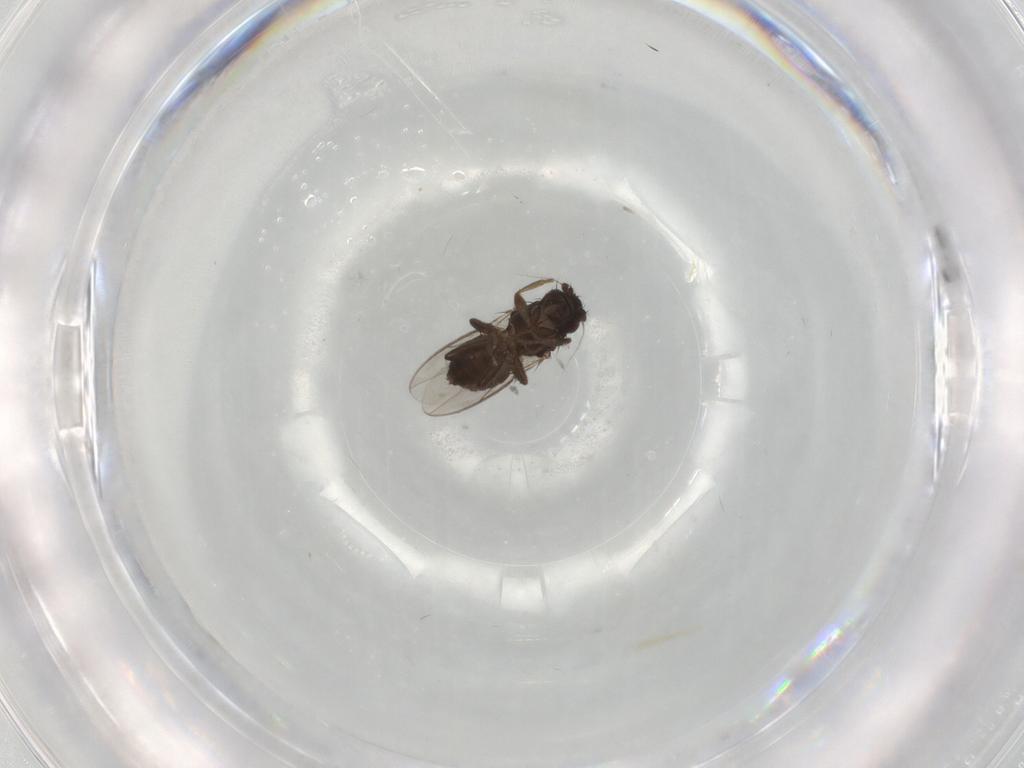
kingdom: Animalia
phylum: Arthropoda
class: Insecta
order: Diptera
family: Sphaeroceridae
